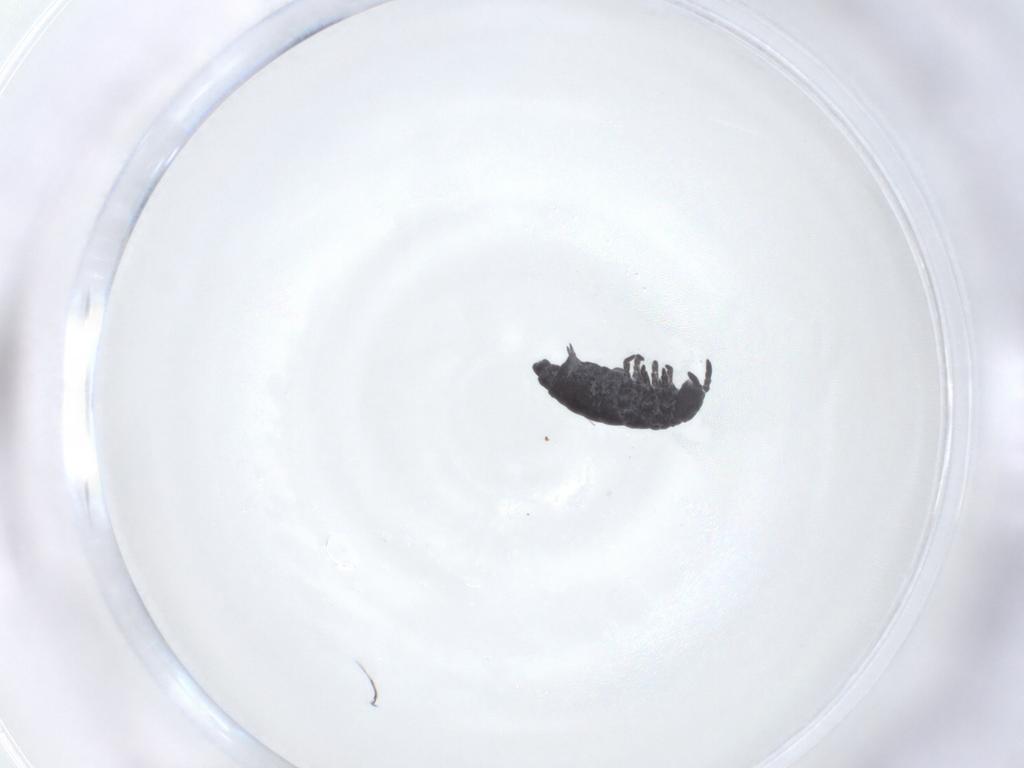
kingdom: Animalia
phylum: Arthropoda
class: Collembola
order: Poduromorpha
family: Hypogastruridae
